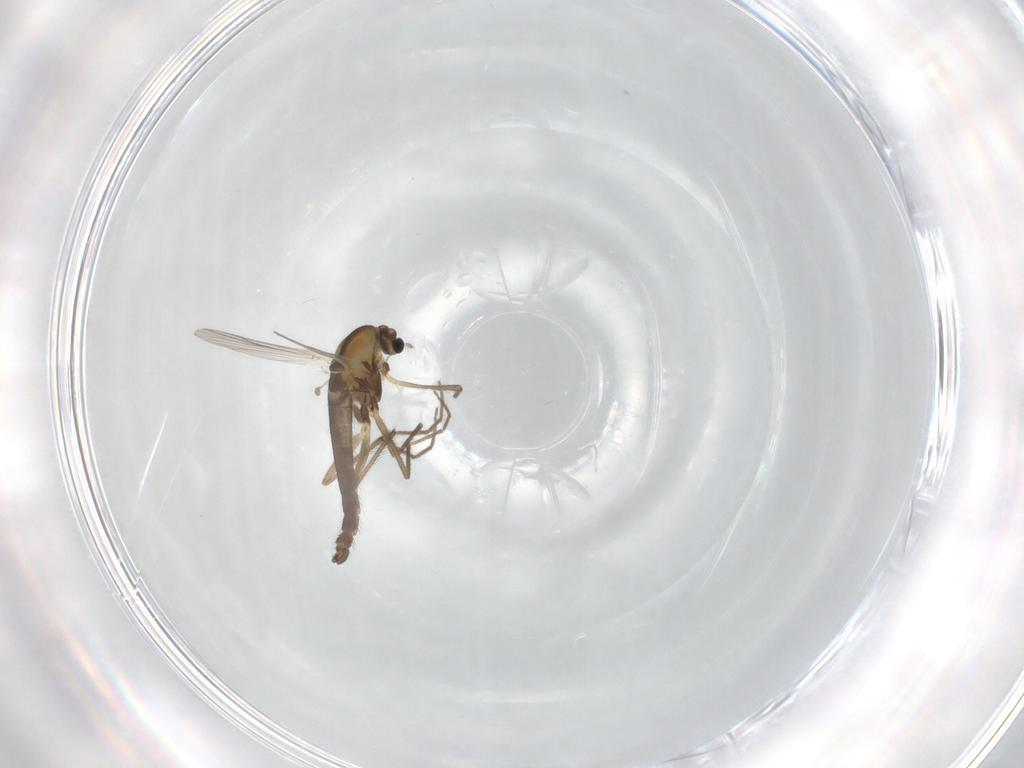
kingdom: Animalia
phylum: Arthropoda
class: Insecta
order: Diptera
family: Chironomidae
